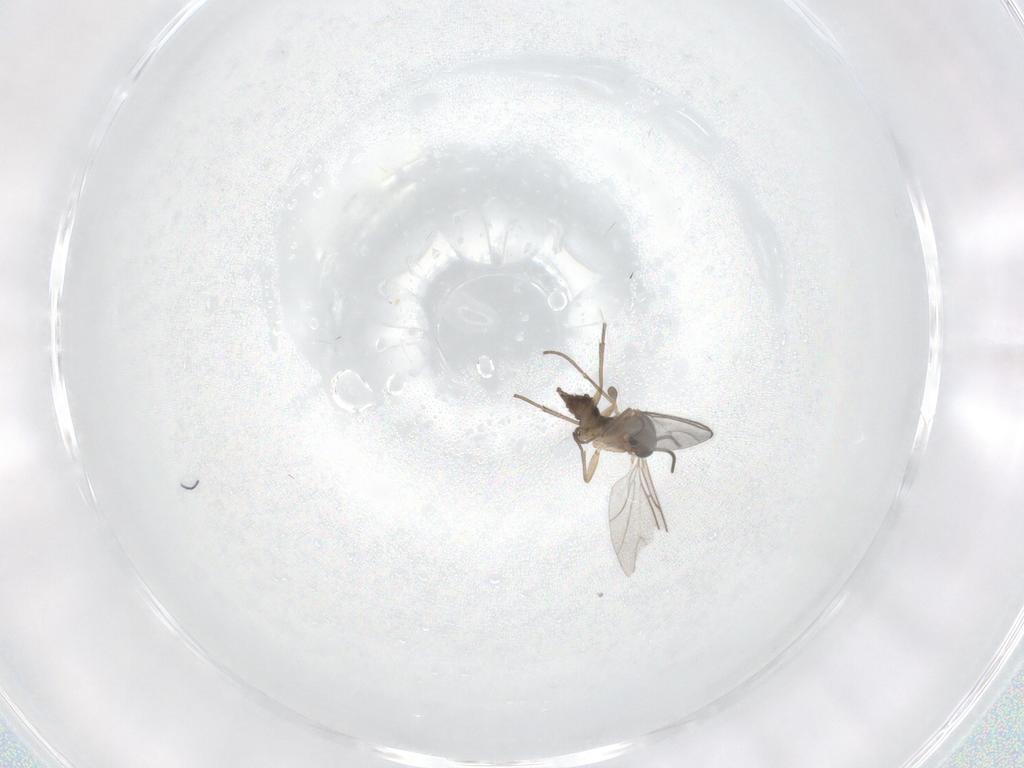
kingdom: Animalia
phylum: Arthropoda
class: Insecta
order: Diptera
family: Sciaridae
